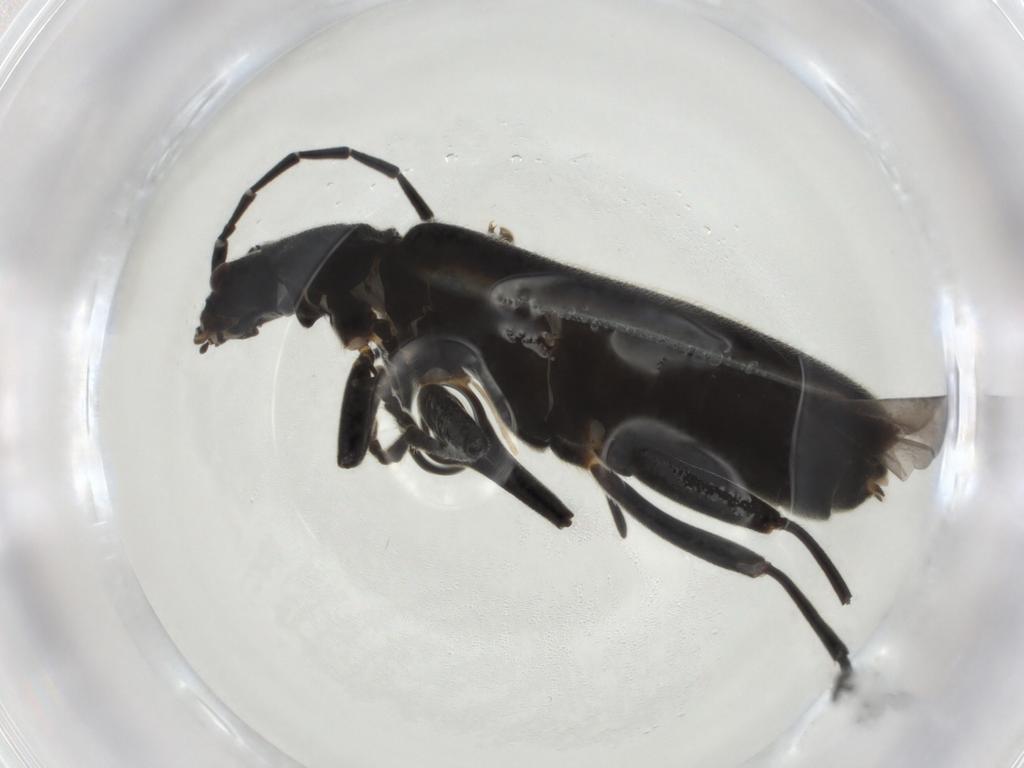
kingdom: Animalia
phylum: Arthropoda
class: Insecta
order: Coleoptera
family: Cantharidae
